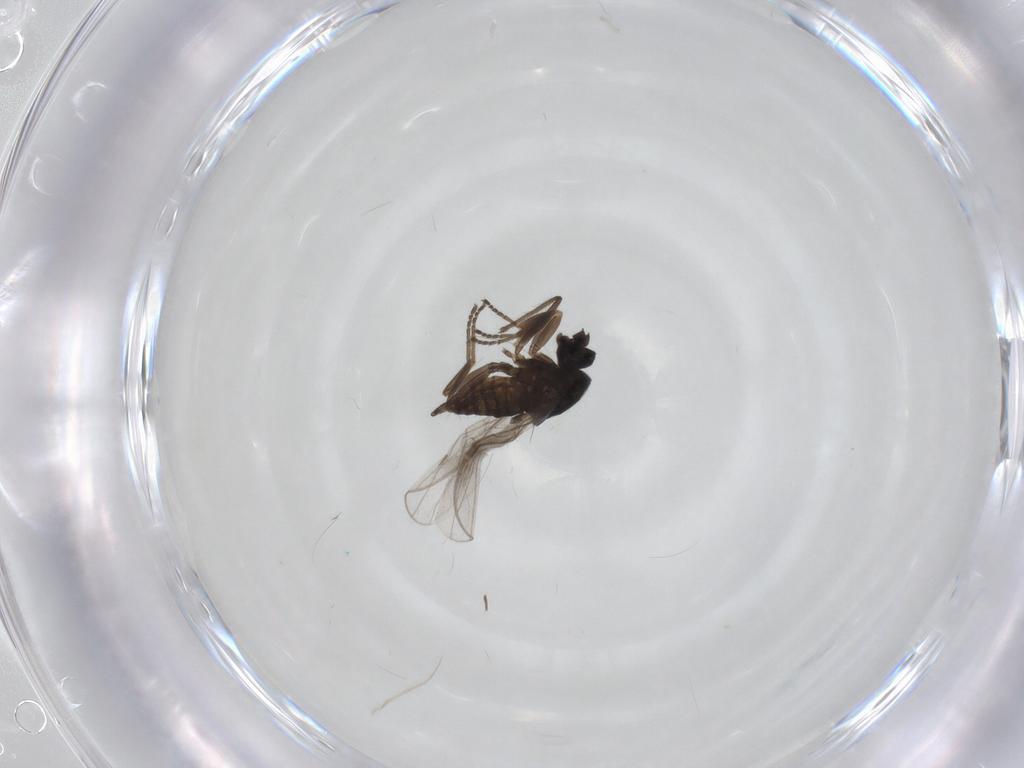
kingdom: Animalia
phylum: Arthropoda
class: Insecta
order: Diptera
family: Hybotidae
